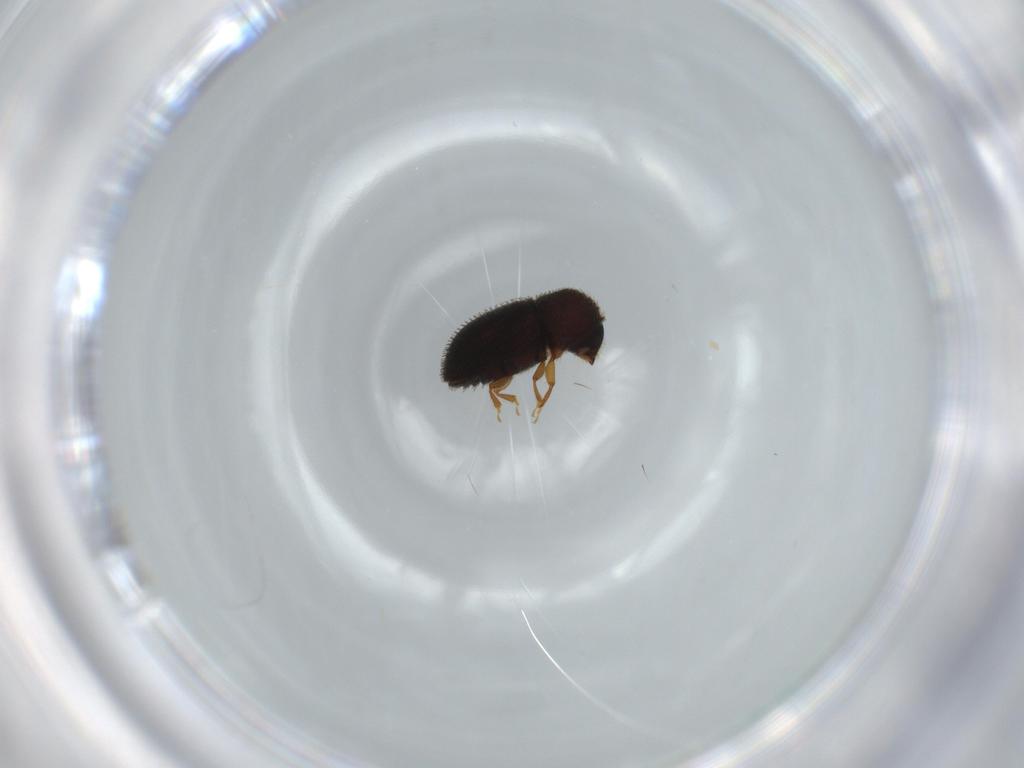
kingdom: Animalia
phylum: Arthropoda
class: Insecta
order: Coleoptera
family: Curculionidae
